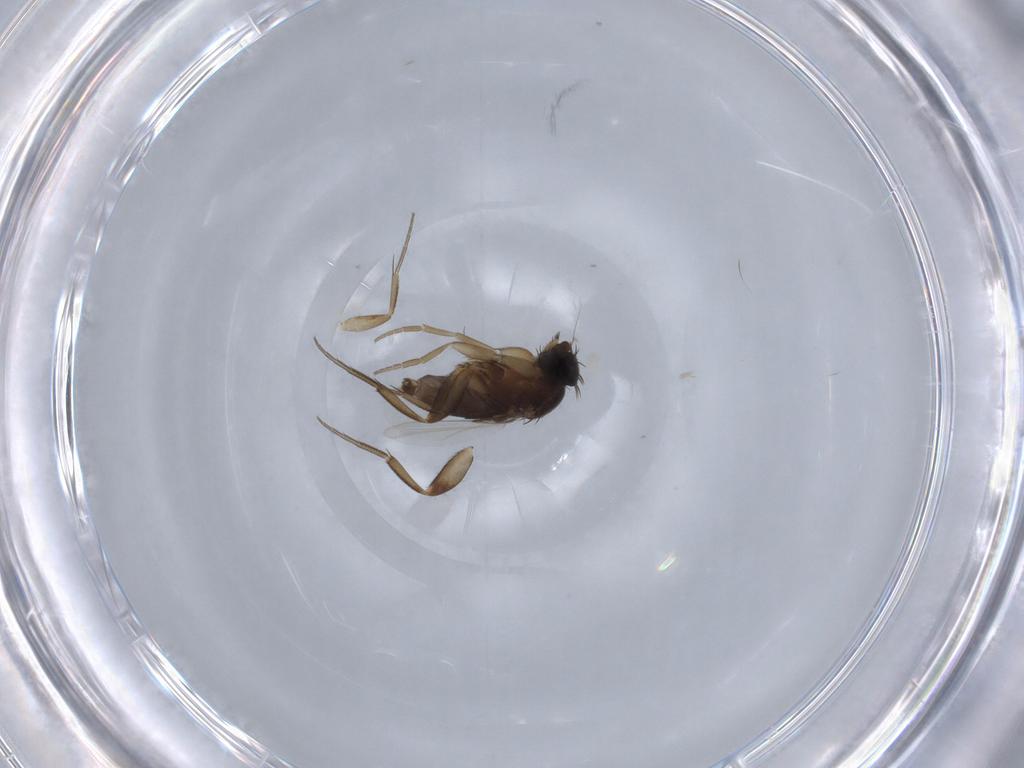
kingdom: Animalia
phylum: Arthropoda
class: Insecta
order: Diptera
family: Phoridae
